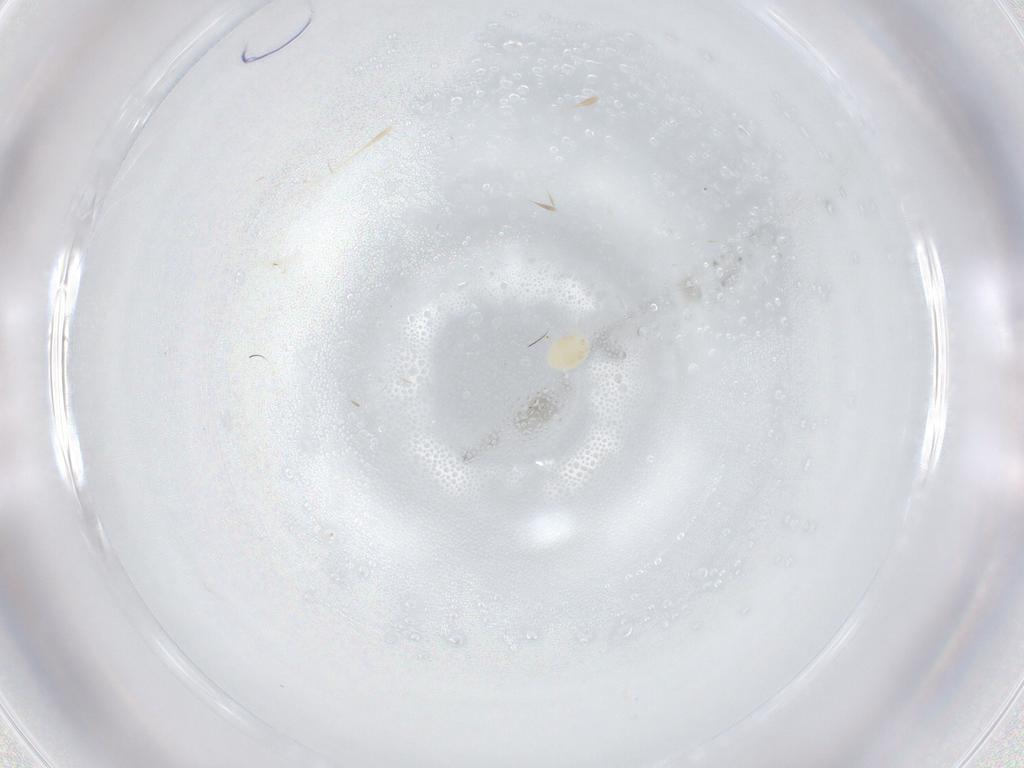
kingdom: Animalia
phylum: Arthropoda
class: Arachnida
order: Trombidiformes
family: Limnesiidae
